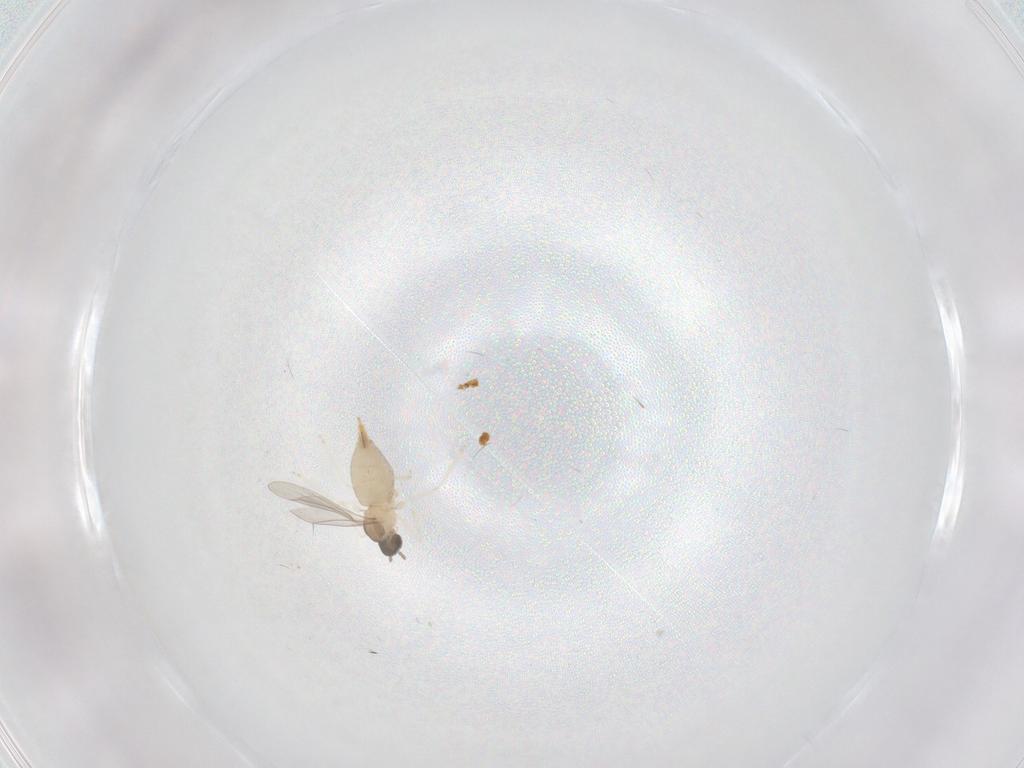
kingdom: Animalia
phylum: Arthropoda
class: Insecta
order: Diptera
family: Cecidomyiidae
